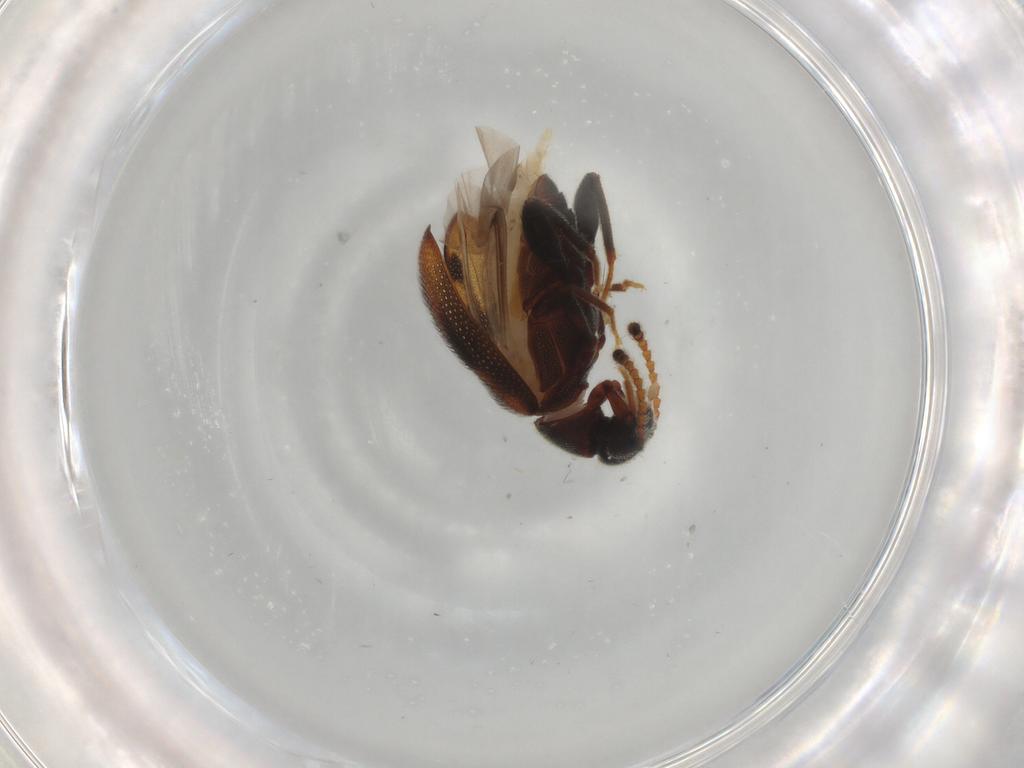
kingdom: Animalia
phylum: Arthropoda
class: Insecta
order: Coleoptera
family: Aderidae
